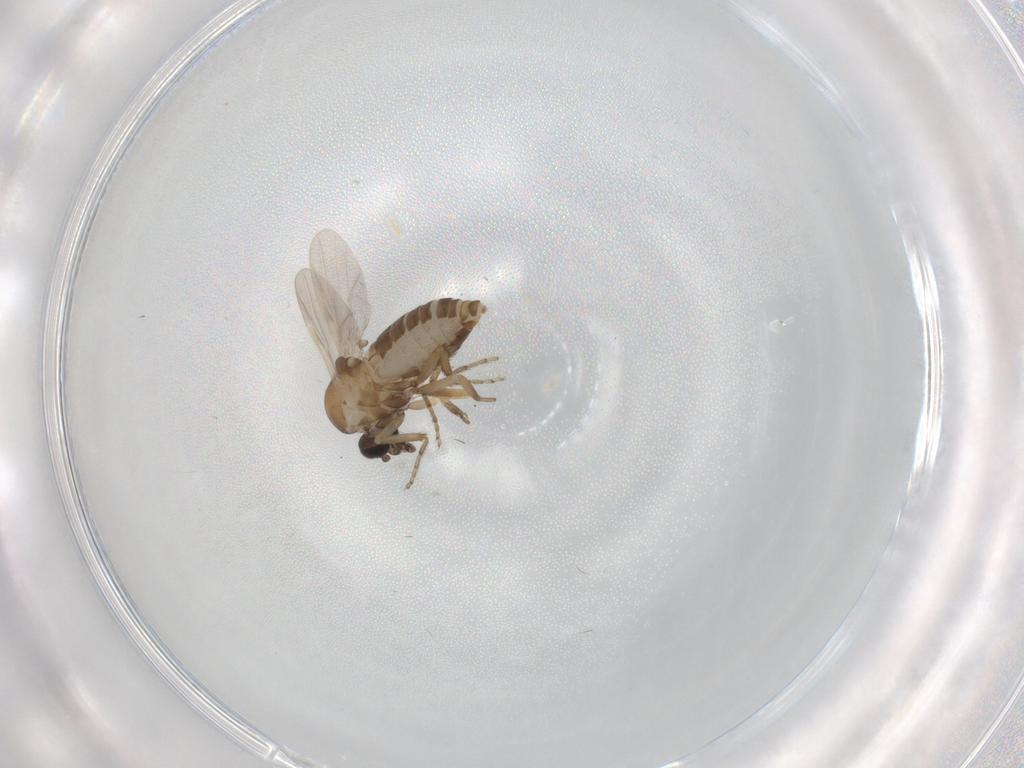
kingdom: Animalia
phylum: Arthropoda
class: Insecta
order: Diptera
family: Ceratopogonidae
